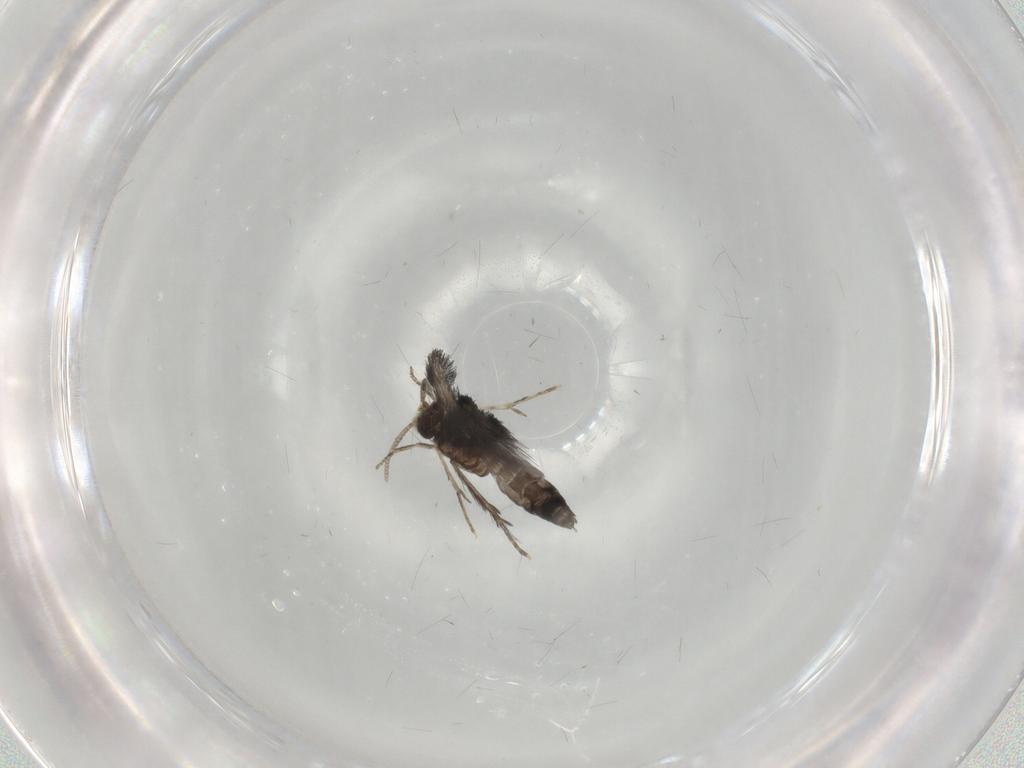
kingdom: Animalia
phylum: Arthropoda
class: Insecta
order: Trichoptera
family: Hydroptilidae
